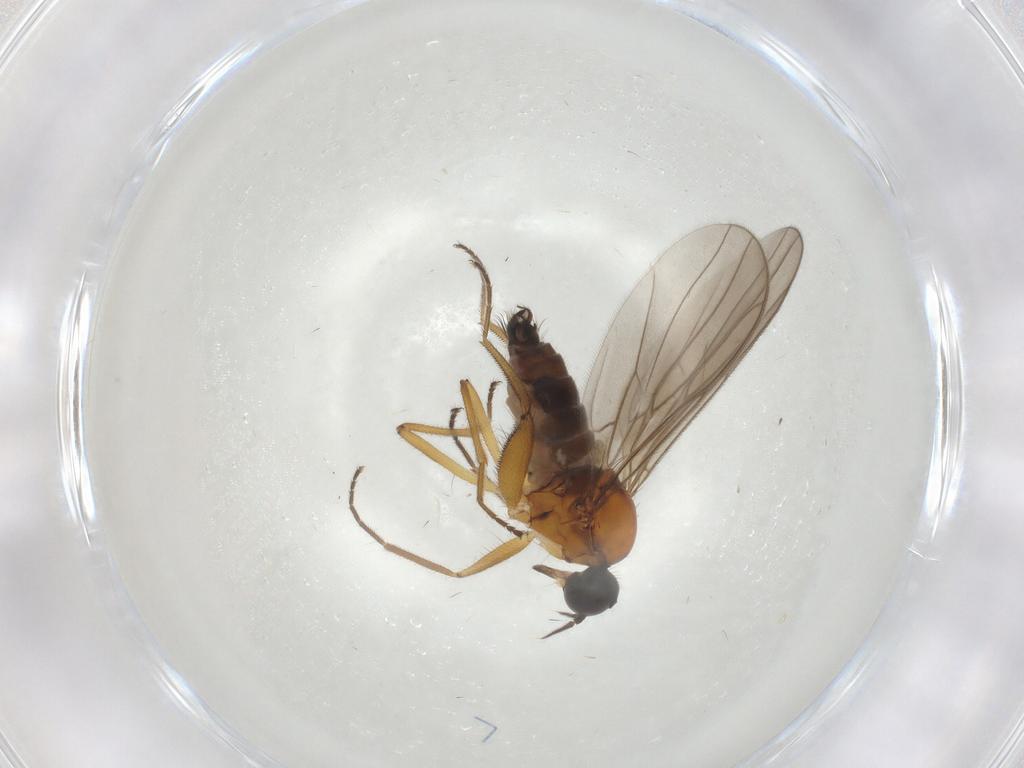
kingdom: Animalia
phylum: Arthropoda
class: Insecta
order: Diptera
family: Hybotidae
